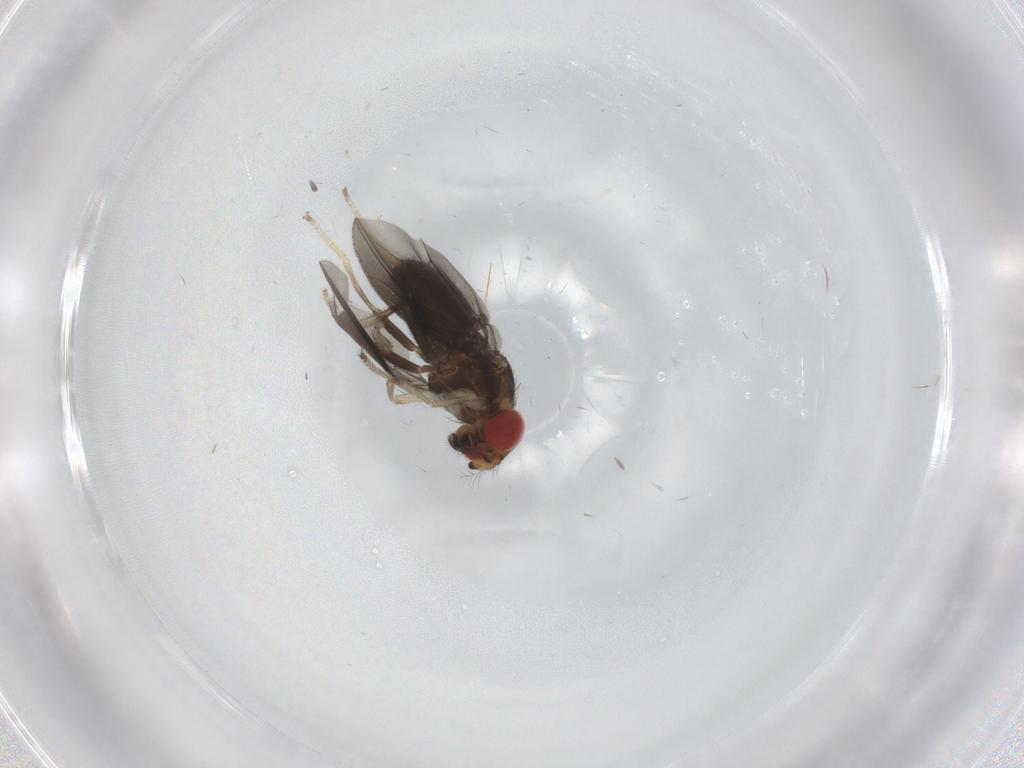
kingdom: Animalia
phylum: Arthropoda
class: Insecta
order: Diptera
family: Drosophilidae
